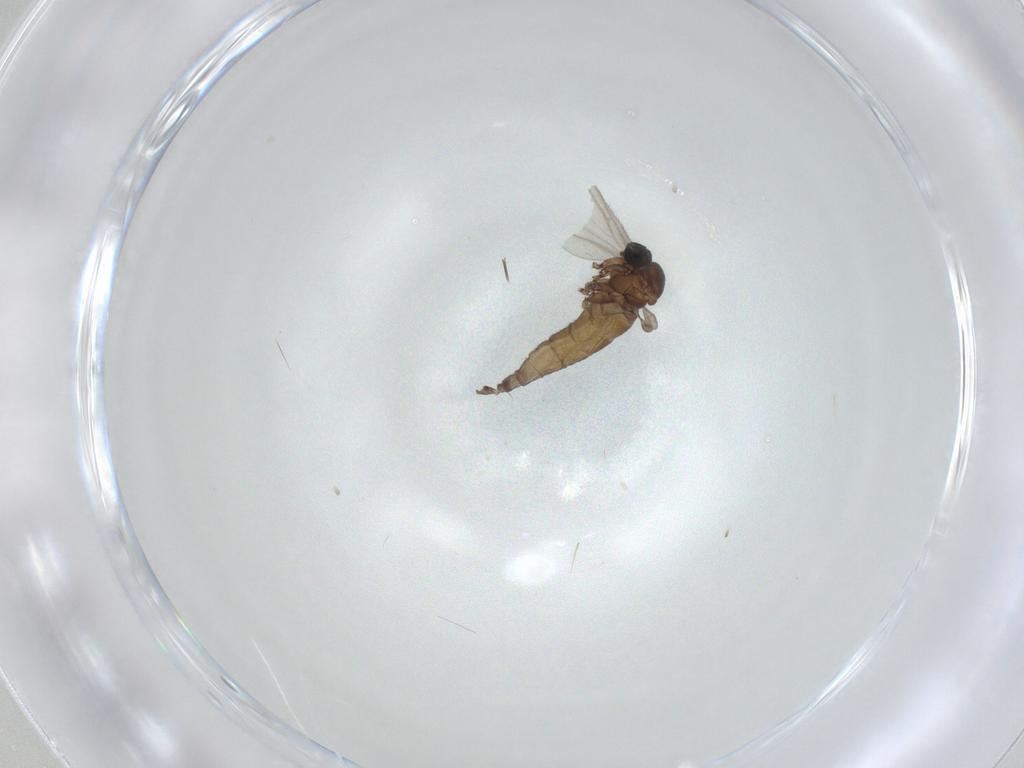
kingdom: Animalia
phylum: Arthropoda
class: Insecta
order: Diptera
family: Sciaridae
